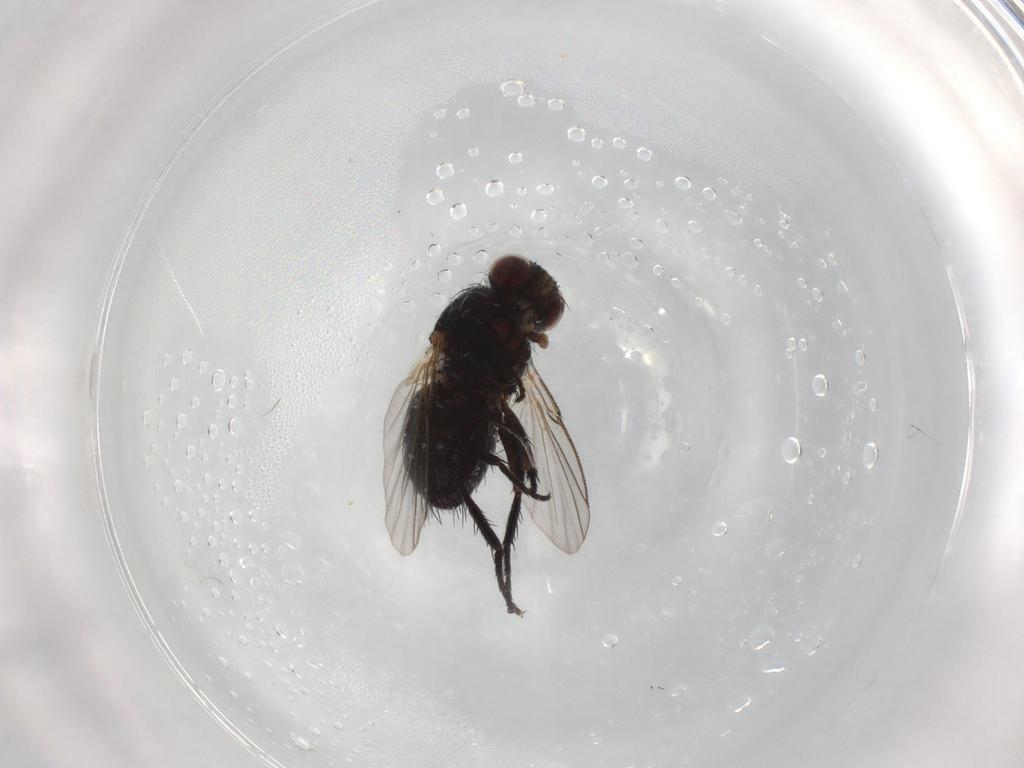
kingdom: Animalia
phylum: Arthropoda
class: Insecta
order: Diptera
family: Tachinidae
